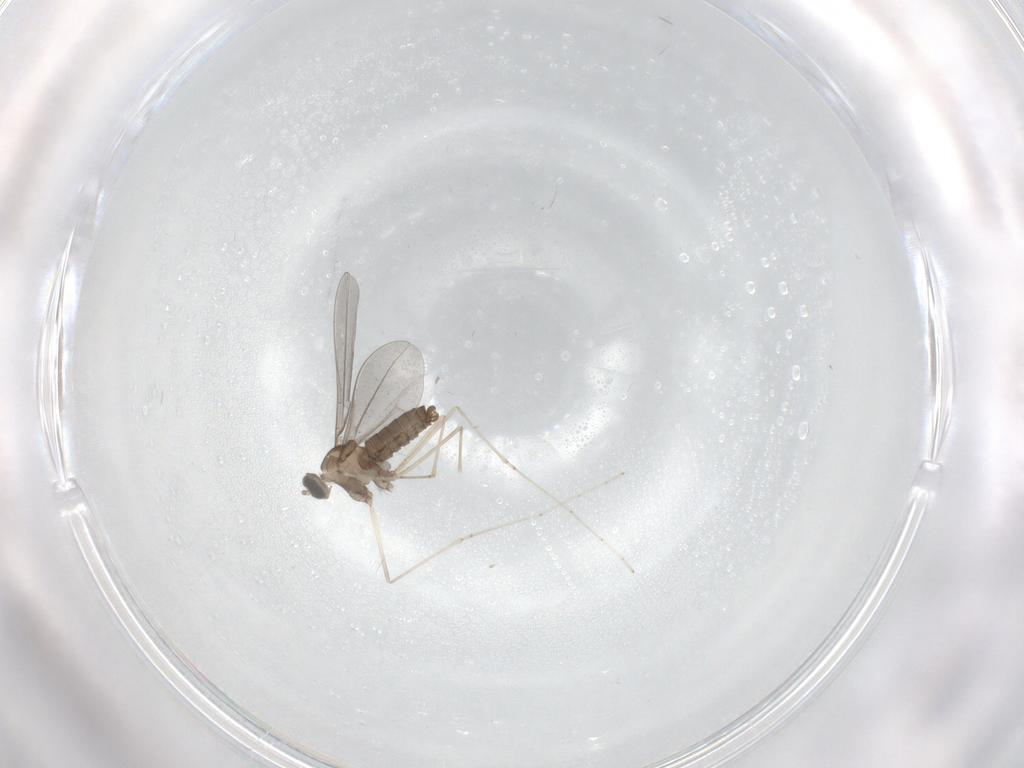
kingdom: Animalia
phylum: Arthropoda
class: Insecta
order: Diptera
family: Cecidomyiidae
